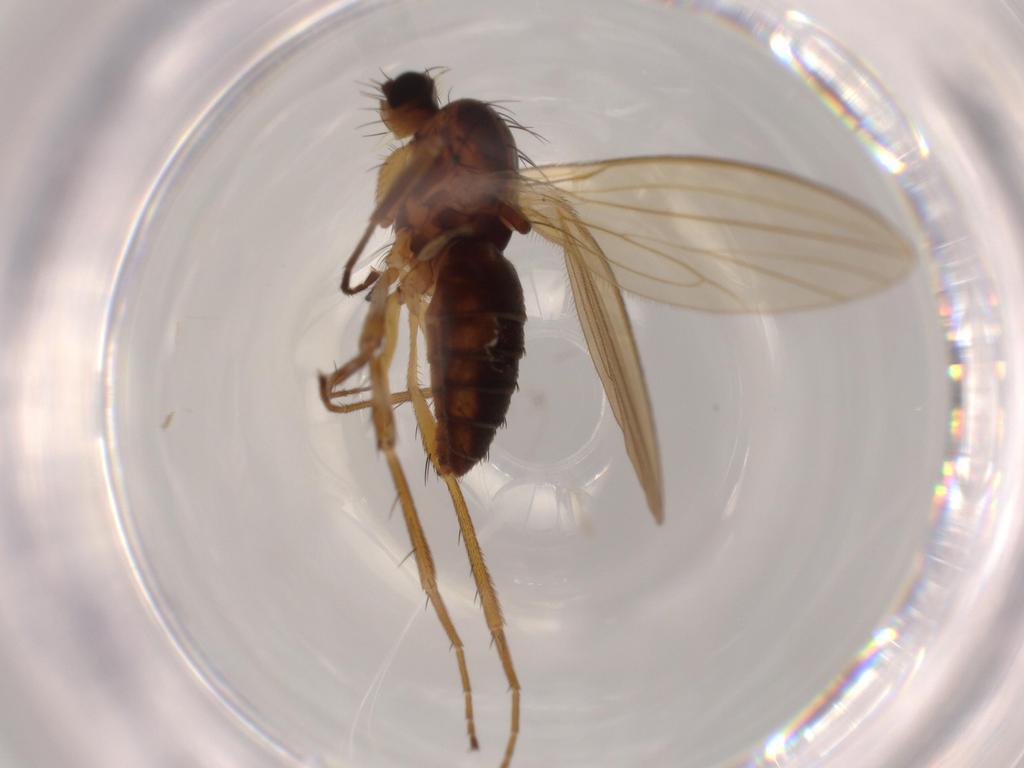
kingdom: Animalia
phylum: Arthropoda
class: Insecta
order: Diptera
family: Lonchopteridae
